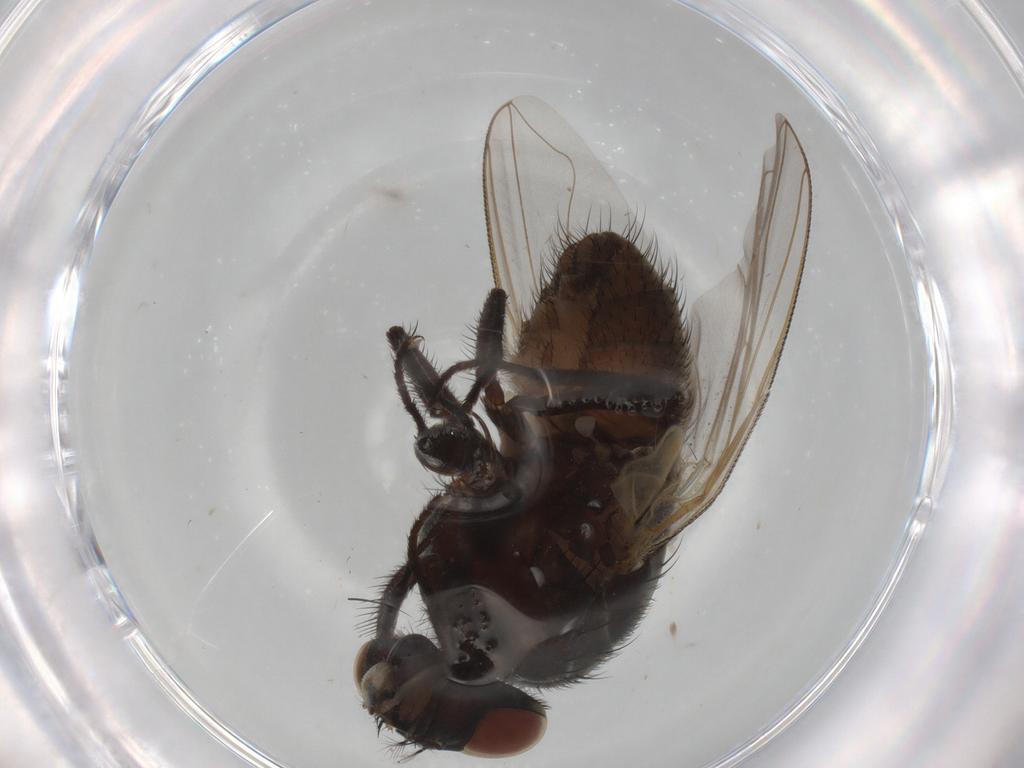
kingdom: Animalia
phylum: Arthropoda
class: Insecta
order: Diptera
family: Muscidae
